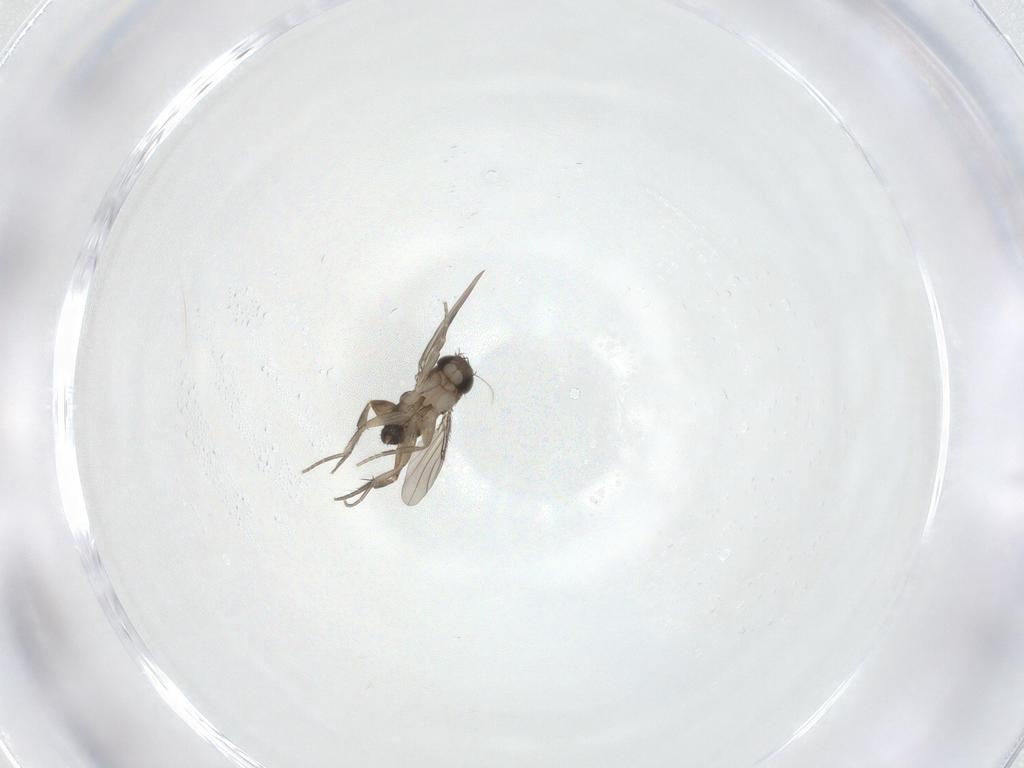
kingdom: Animalia
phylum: Arthropoda
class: Insecta
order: Diptera
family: Phoridae
